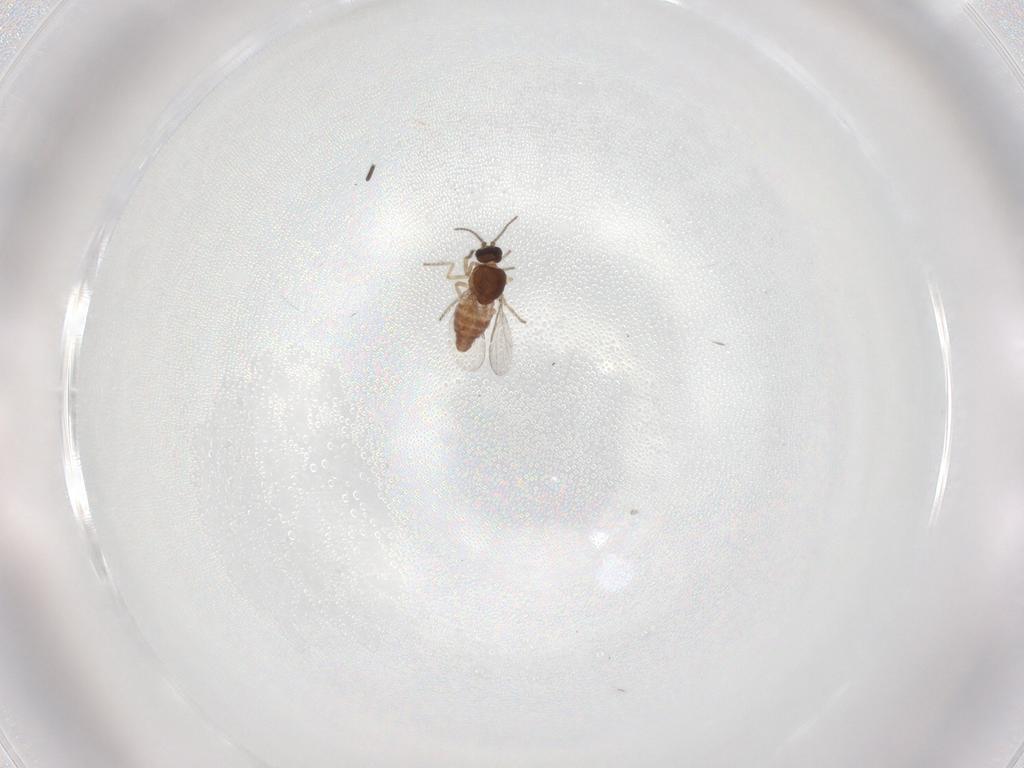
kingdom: Animalia
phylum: Arthropoda
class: Insecta
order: Diptera
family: Ceratopogonidae
